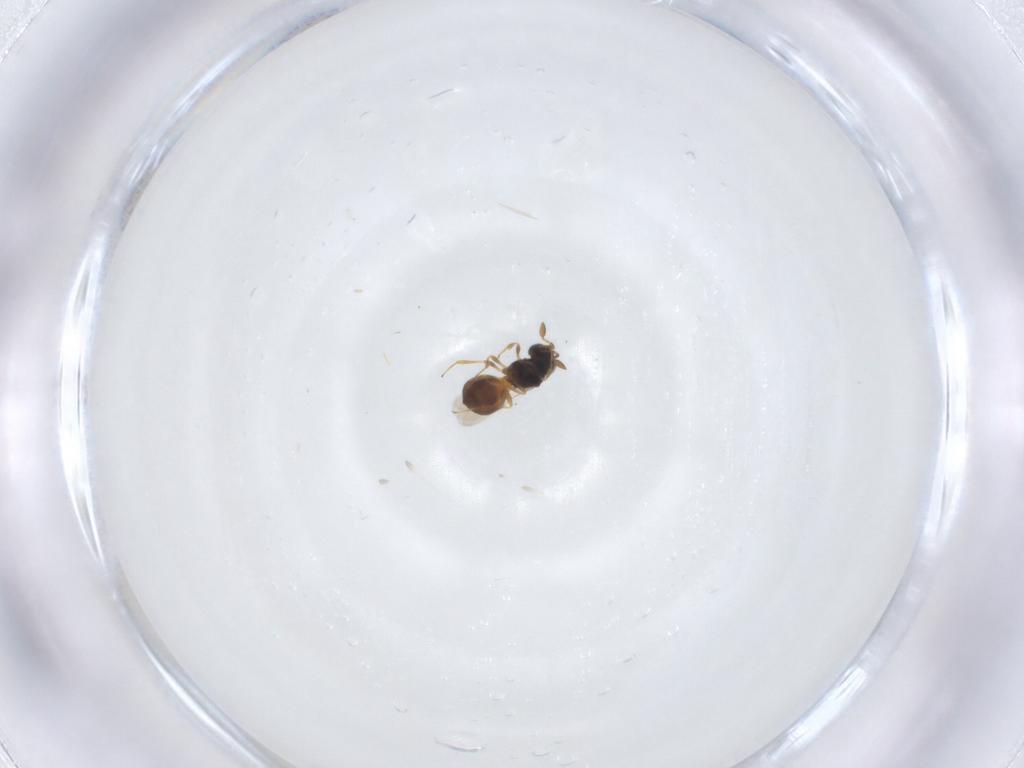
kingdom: Animalia
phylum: Arthropoda
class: Insecta
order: Hymenoptera
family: Scelionidae
